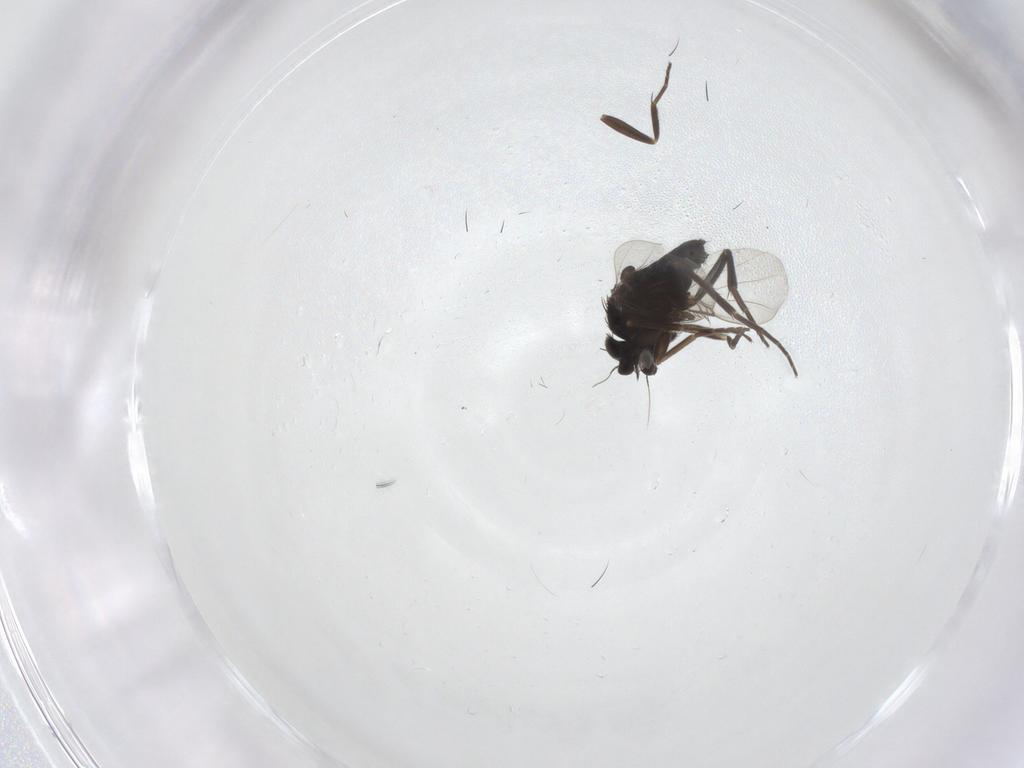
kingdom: Animalia
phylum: Arthropoda
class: Insecta
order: Diptera
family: Phoridae
